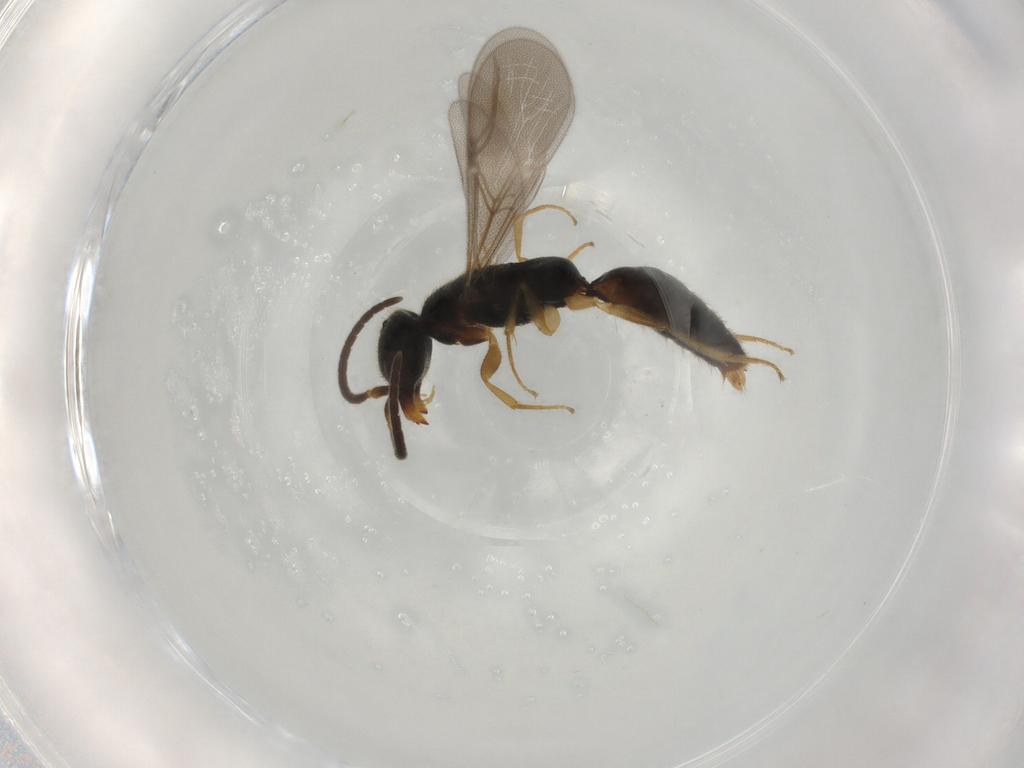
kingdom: Animalia
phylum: Arthropoda
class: Insecta
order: Hymenoptera
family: Bethylidae
